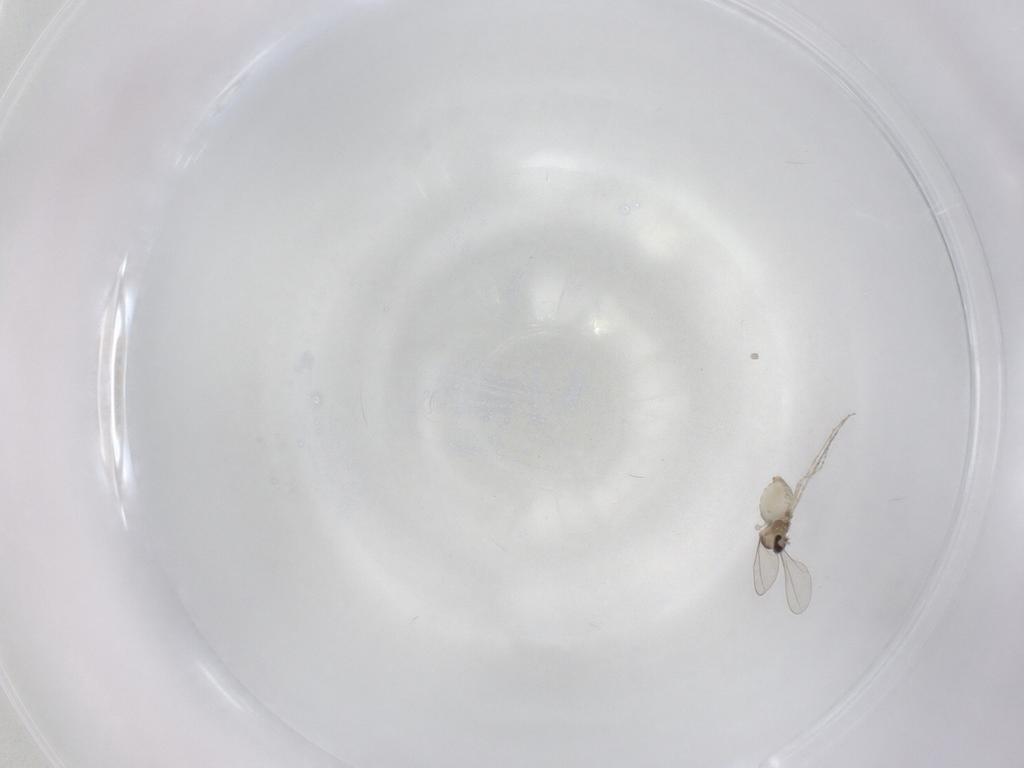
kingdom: Animalia
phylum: Arthropoda
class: Insecta
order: Diptera
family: Cecidomyiidae
